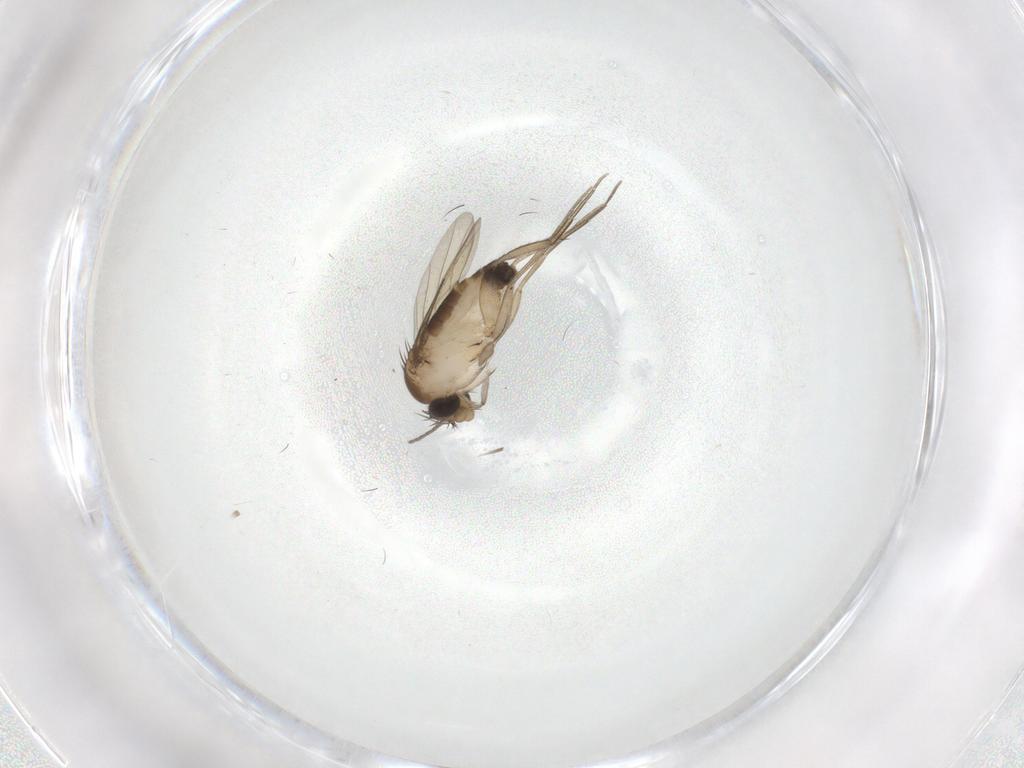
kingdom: Animalia
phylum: Arthropoda
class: Insecta
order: Diptera
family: Sciaridae
